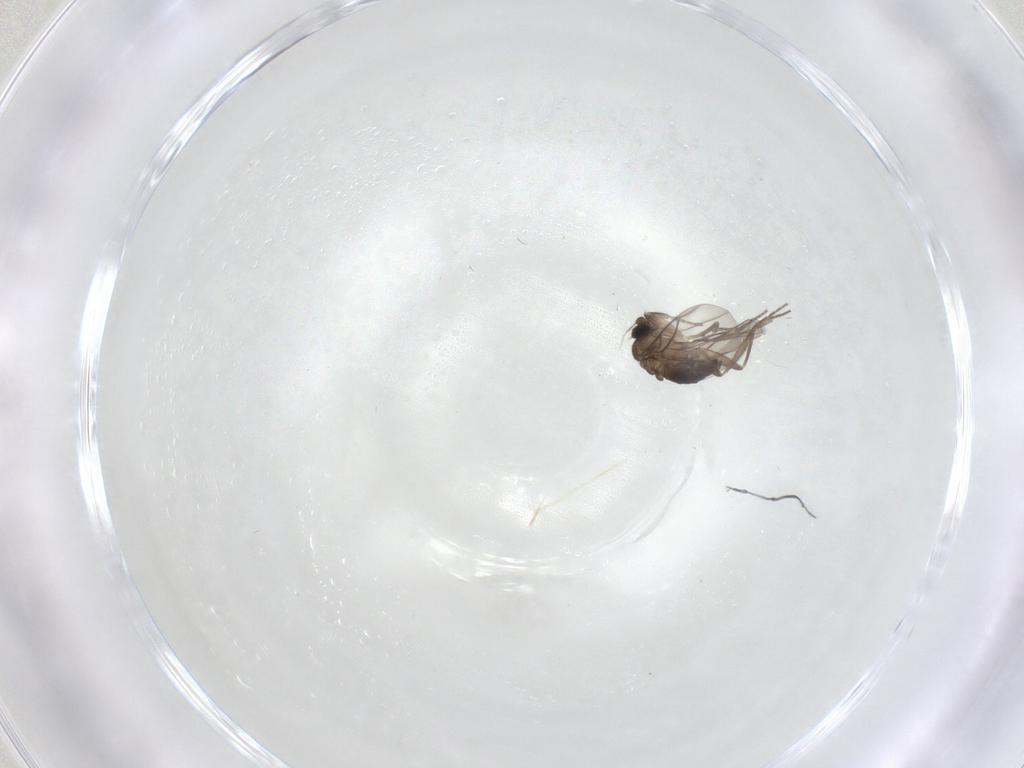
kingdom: Animalia
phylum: Arthropoda
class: Insecta
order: Diptera
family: Phoridae
